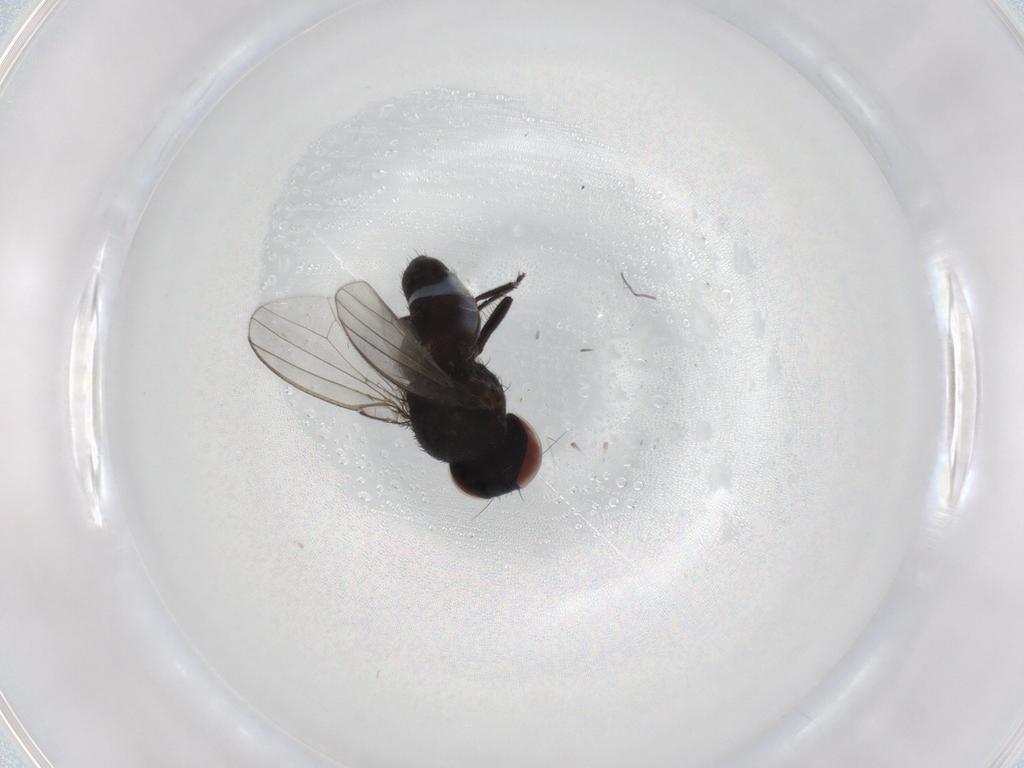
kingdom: Animalia
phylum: Arthropoda
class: Insecta
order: Diptera
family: Milichiidae
